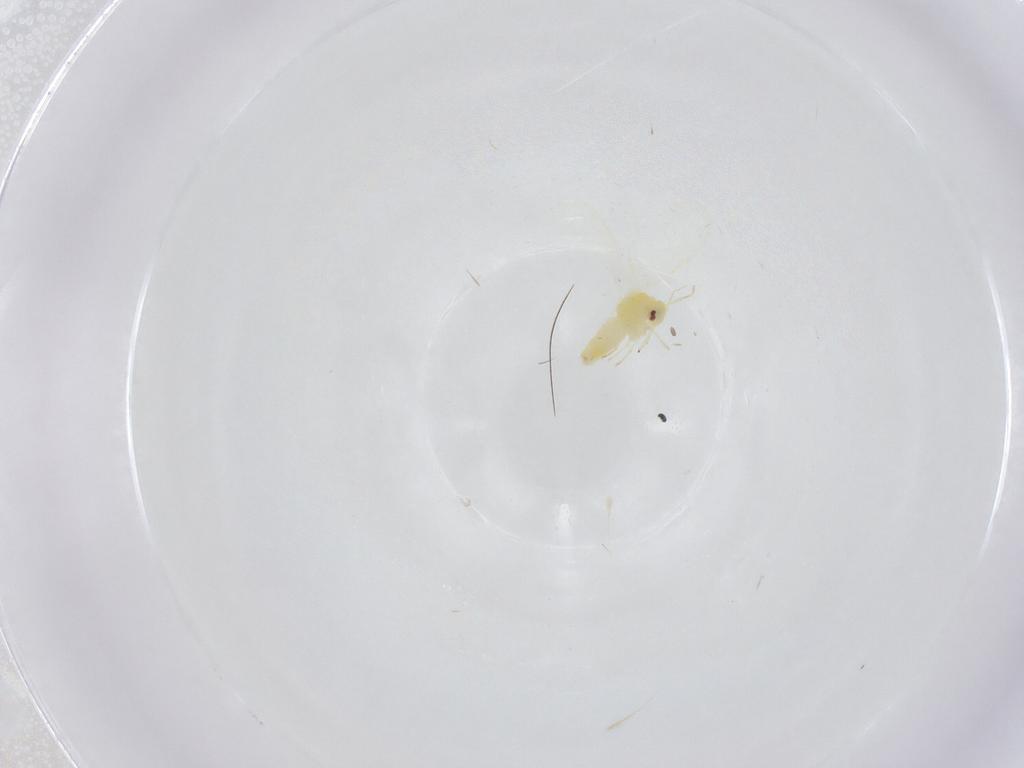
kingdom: Animalia
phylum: Arthropoda
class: Insecta
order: Hemiptera
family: Aleyrodidae
